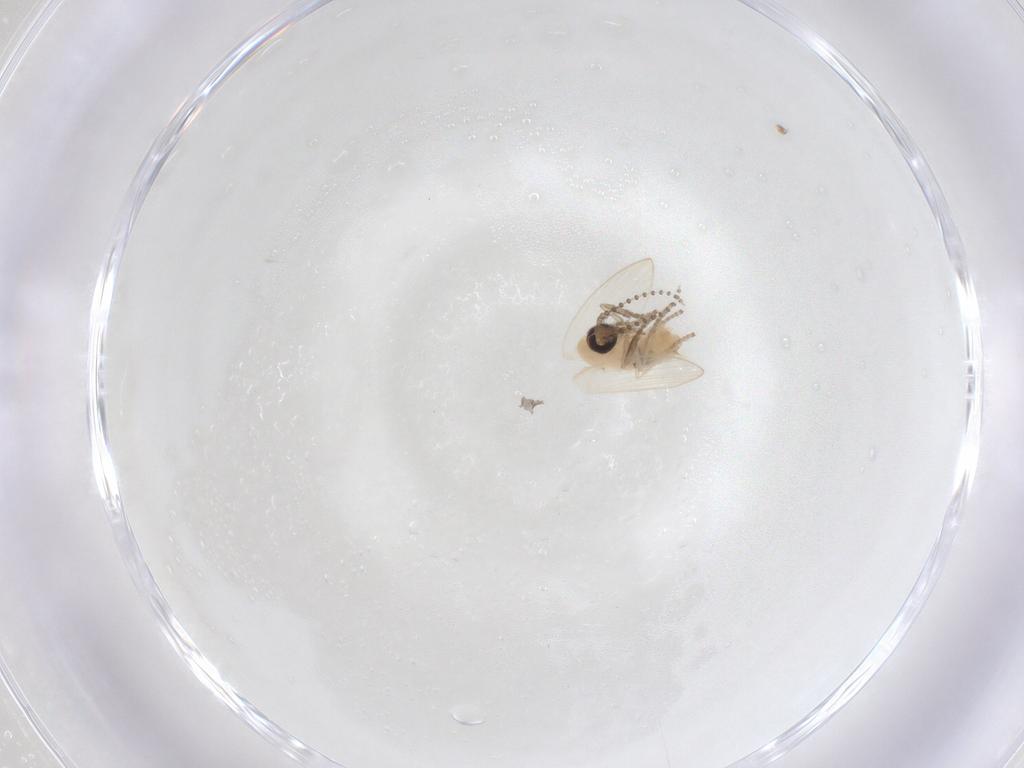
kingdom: Animalia
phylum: Arthropoda
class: Insecta
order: Diptera
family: Psychodidae
